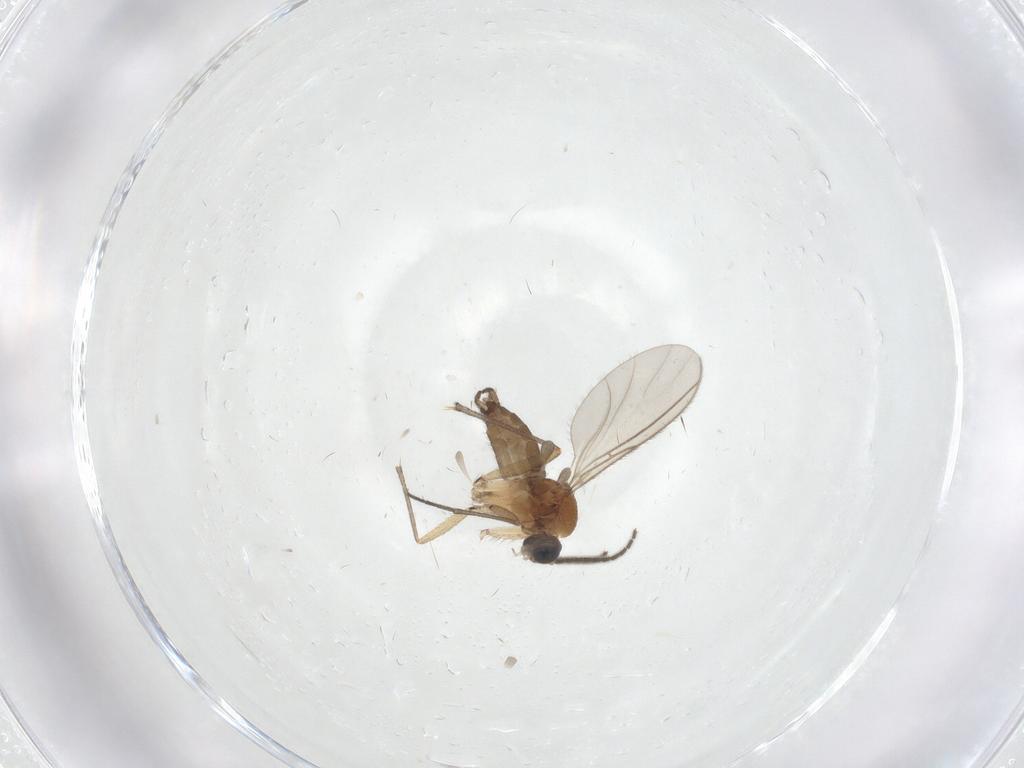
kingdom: Animalia
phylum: Arthropoda
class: Insecta
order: Diptera
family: Sciaridae
